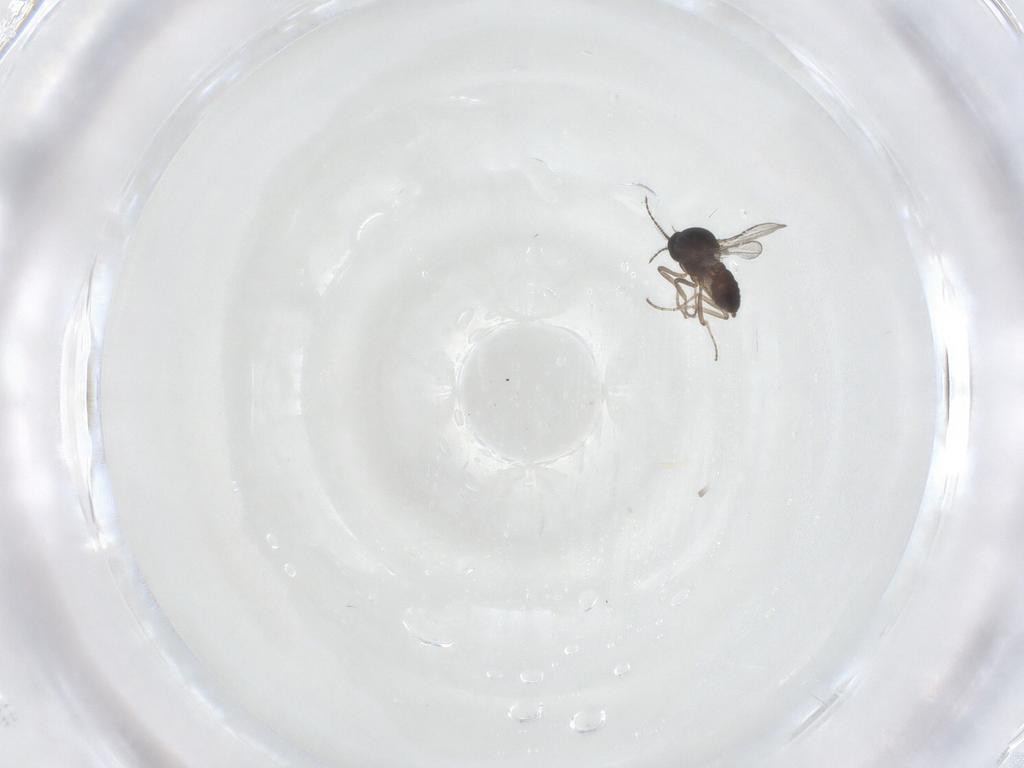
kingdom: Animalia
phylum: Arthropoda
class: Insecta
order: Diptera
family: Ceratopogonidae
